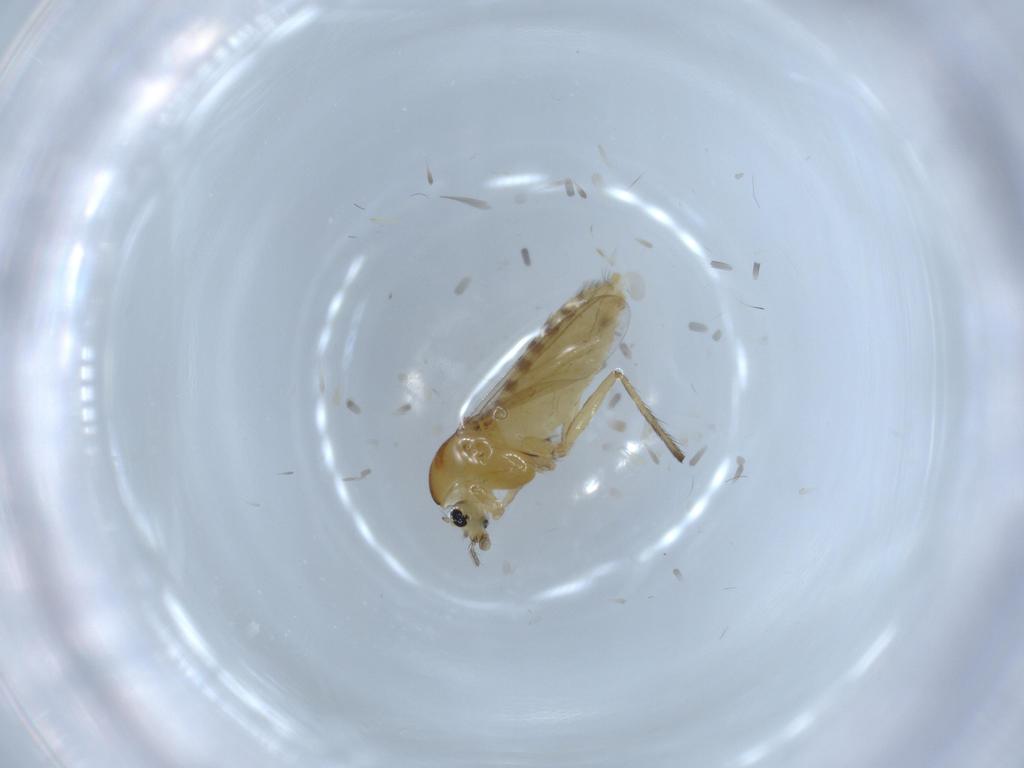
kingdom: Animalia
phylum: Arthropoda
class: Insecta
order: Diptera
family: Chironomidae
